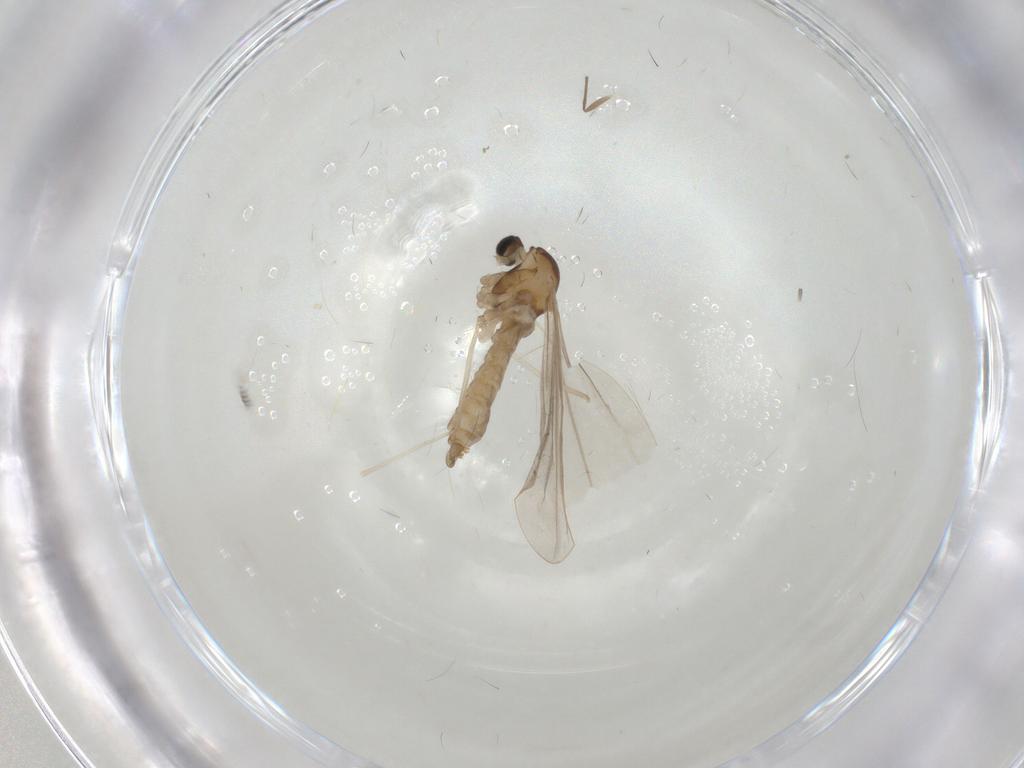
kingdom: Animalia
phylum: Arthropoda
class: Insecta
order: Diptera
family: Cecidomyiidae
